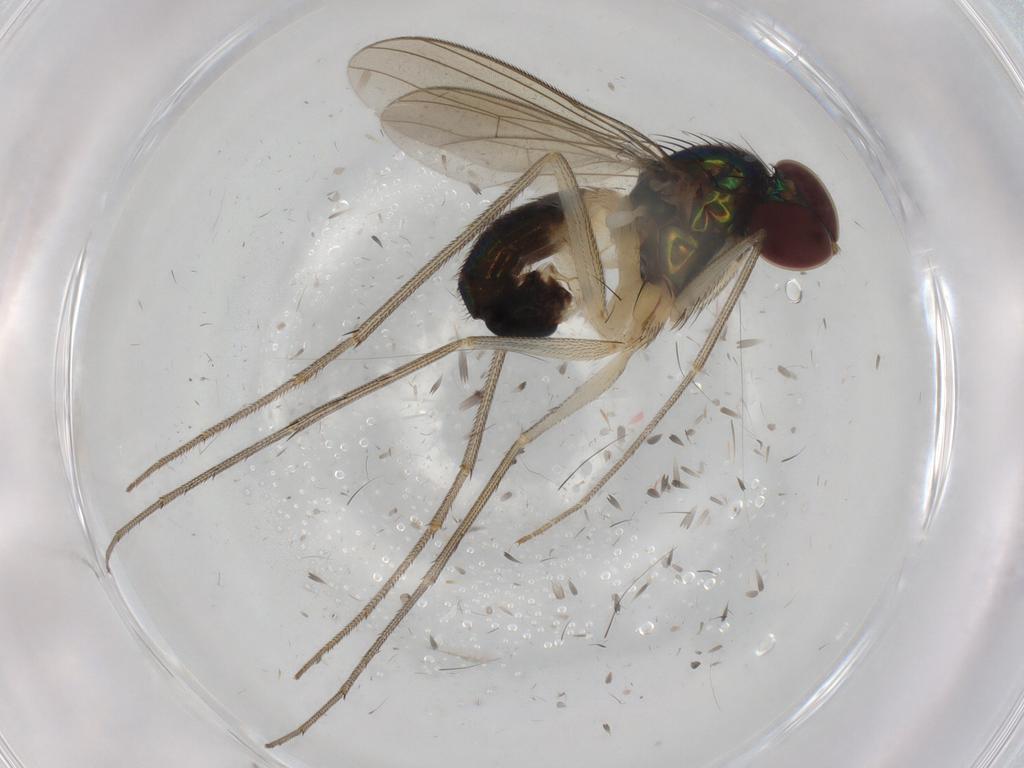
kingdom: Animalia
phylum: Arthropoda
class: Insecta
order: Diptera
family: Dolichopodidae
